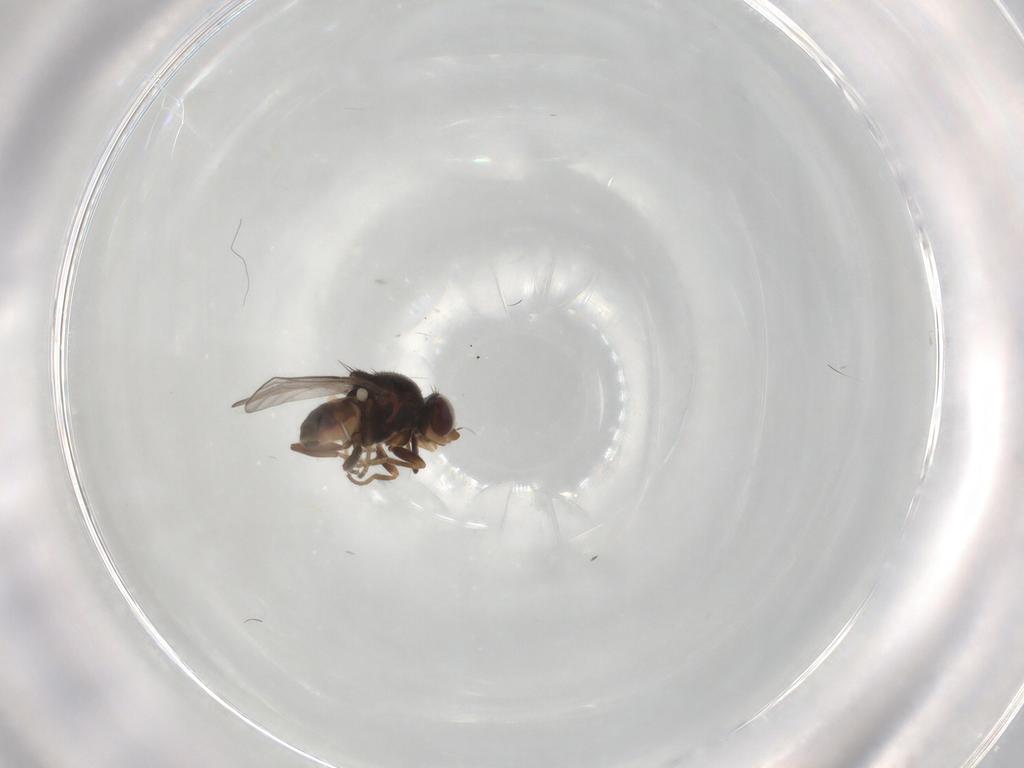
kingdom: Animalia
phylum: Arthropoda
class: Insecta
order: Diptera
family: Chloropidae
